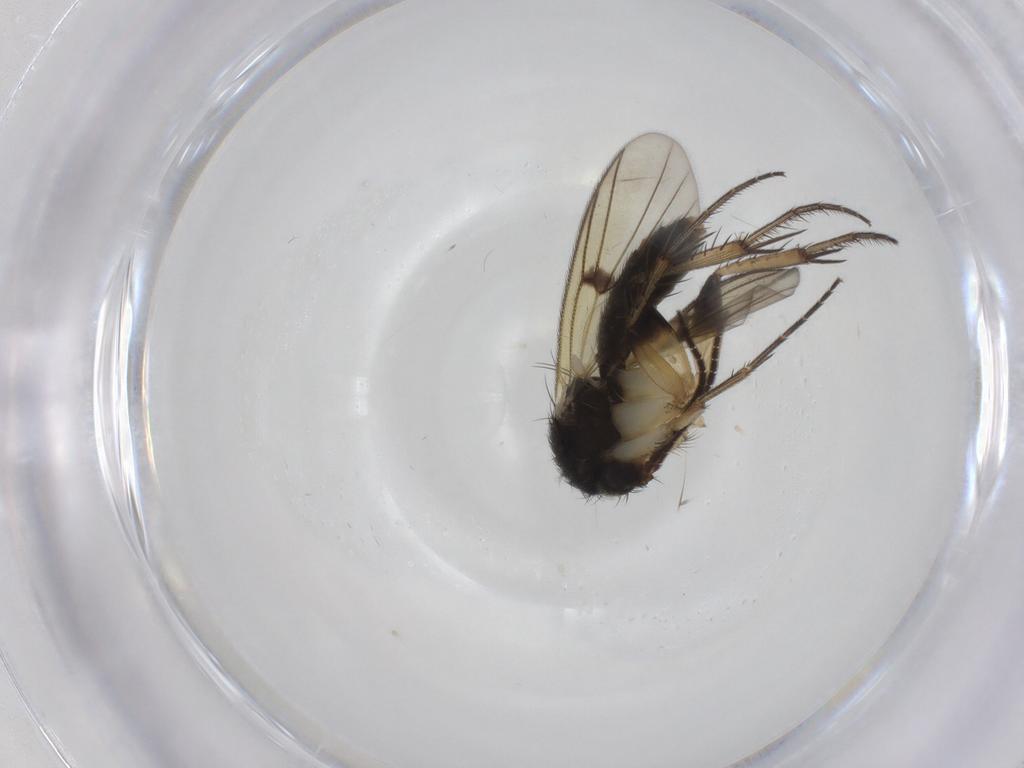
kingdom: Animalia
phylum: Arthropoda
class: Insecta
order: Diptera
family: Mycetophilidae
